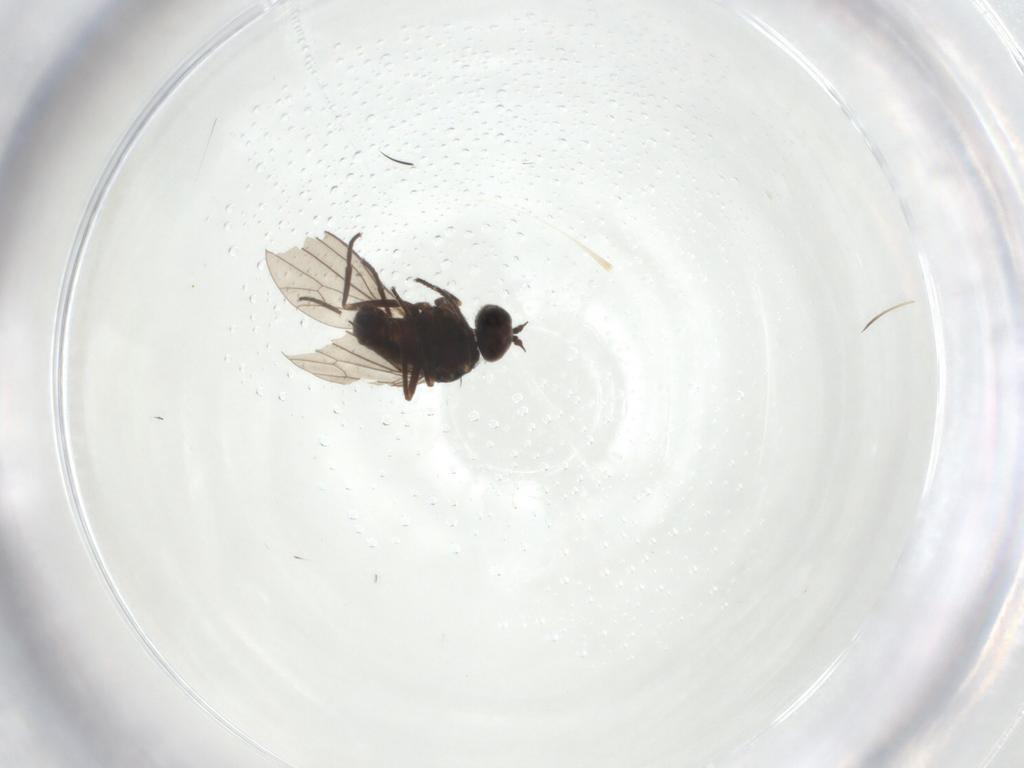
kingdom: Animalia
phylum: Arthropoda
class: Insecta
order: Diptera
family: Dolichopodidae
